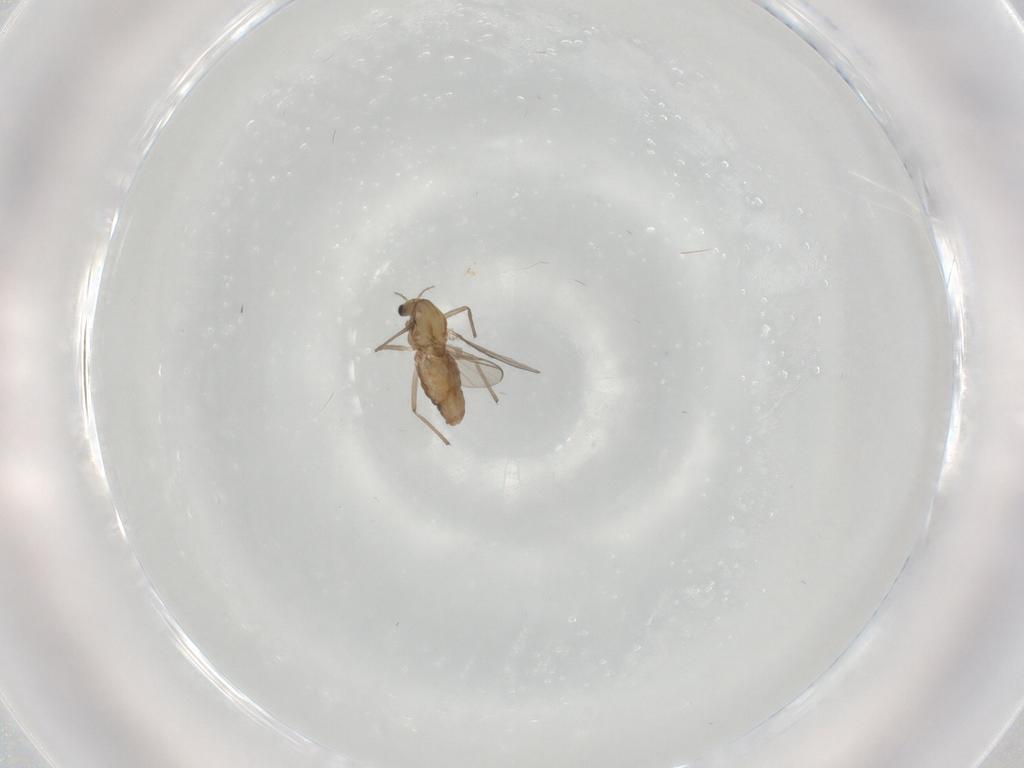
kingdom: Animalia
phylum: Arthropoda
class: Insecta
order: Diptera
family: Chironomidae
